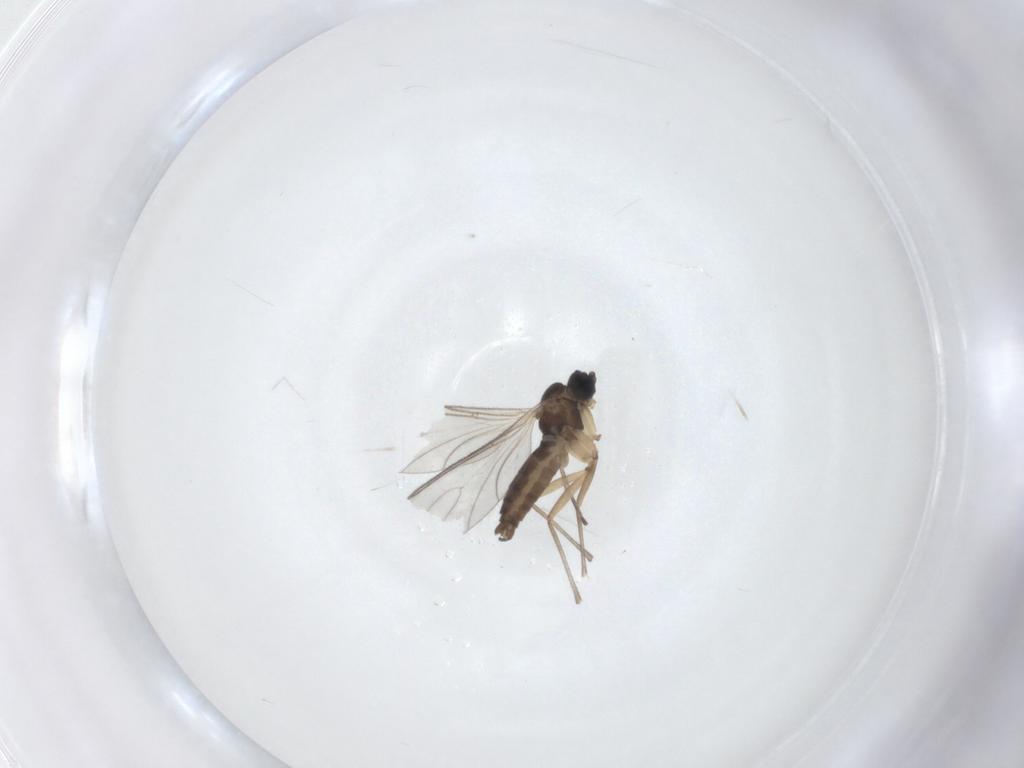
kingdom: Animalia
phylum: Arthropoda
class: Insecta
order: Diptera
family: Chironomidae
